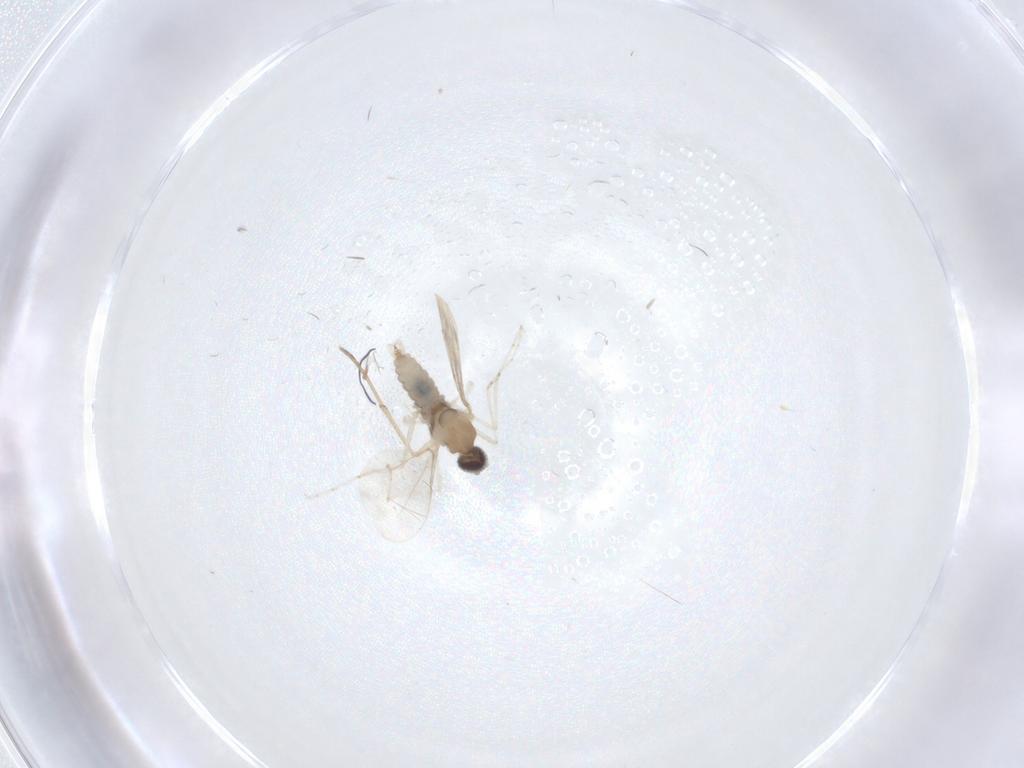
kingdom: Animalia
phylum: Arthropoda
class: Insecta
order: Diptera
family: Cecidomyiidae
